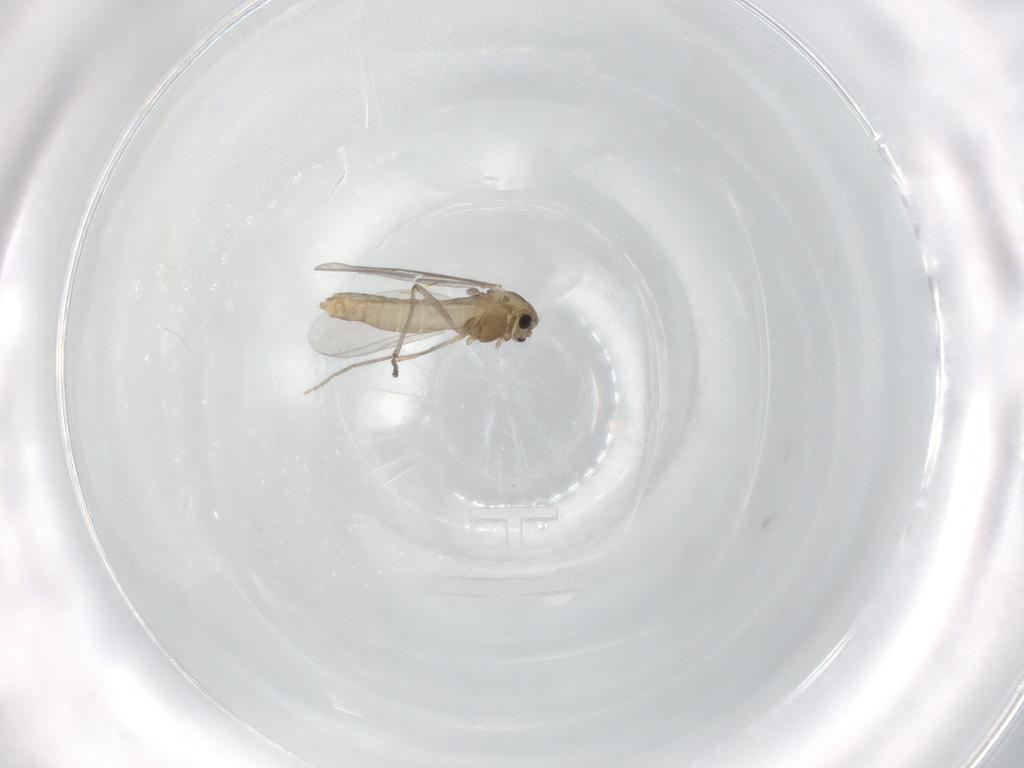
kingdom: Animalia
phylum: Arthropoda
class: Insecta
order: Diptera
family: Chironomidae
